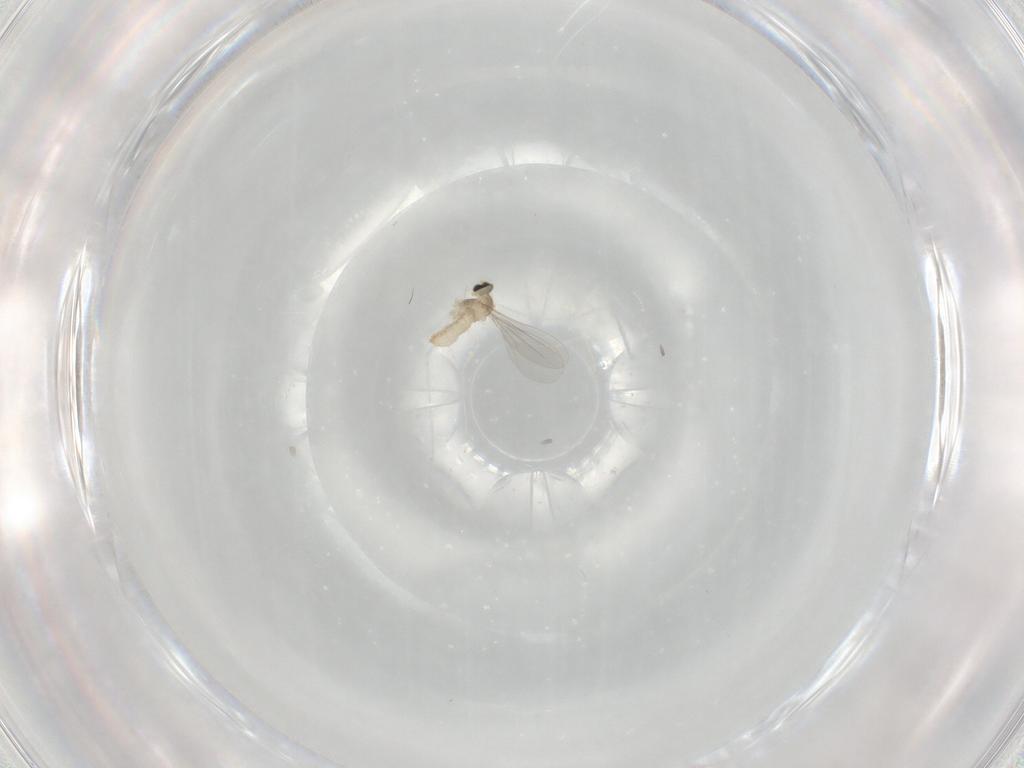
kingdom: Animalia
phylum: Arthropoda
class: Insecta
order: Diptera
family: Cecidomyiidae
